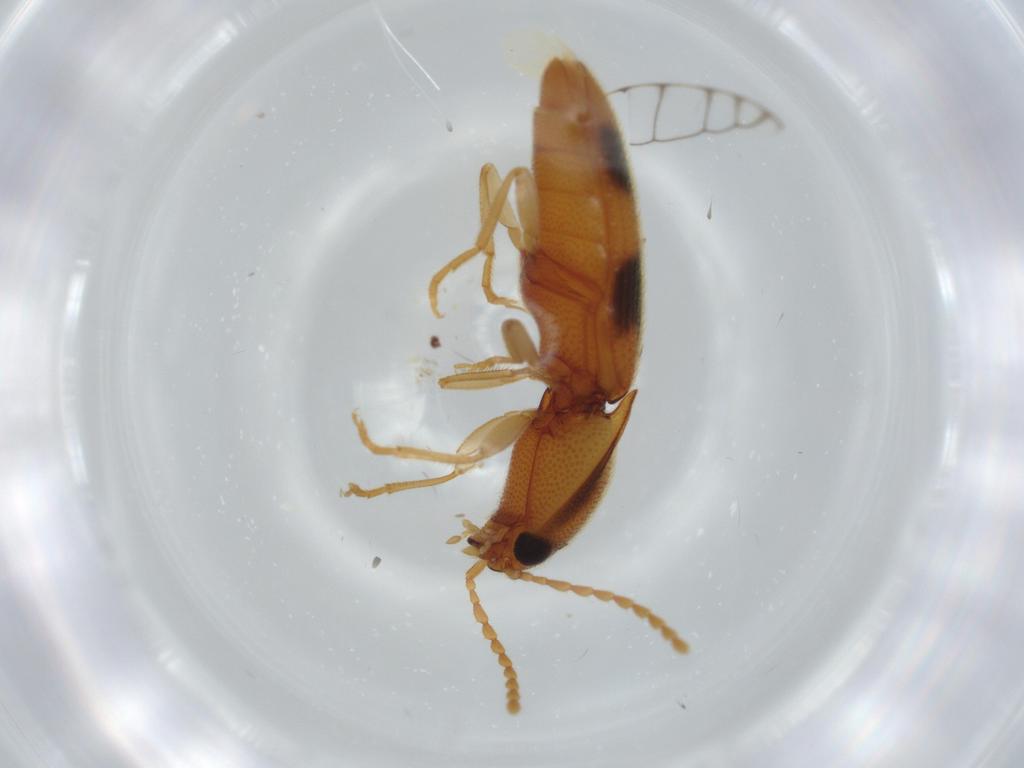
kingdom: Animalia
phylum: Arthropoda
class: Insecta
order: Coleoptera
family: Elateridae
